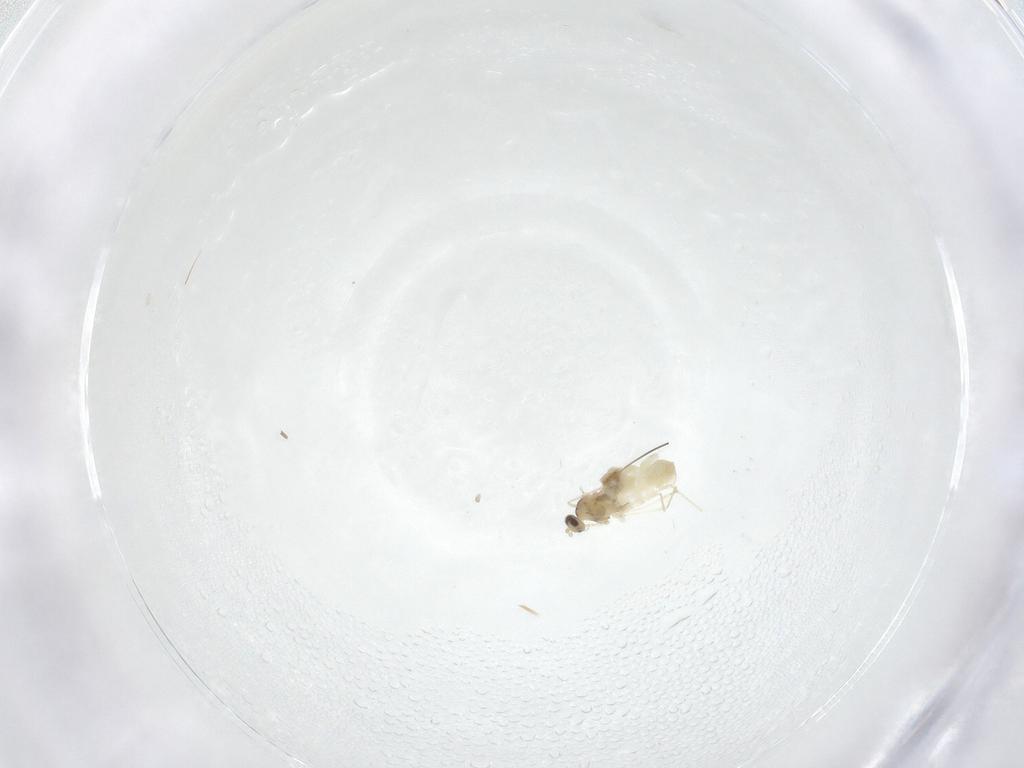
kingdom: Animalia
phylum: Arthropoda
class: Insecta
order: Diptera
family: Cecidomyiidae
